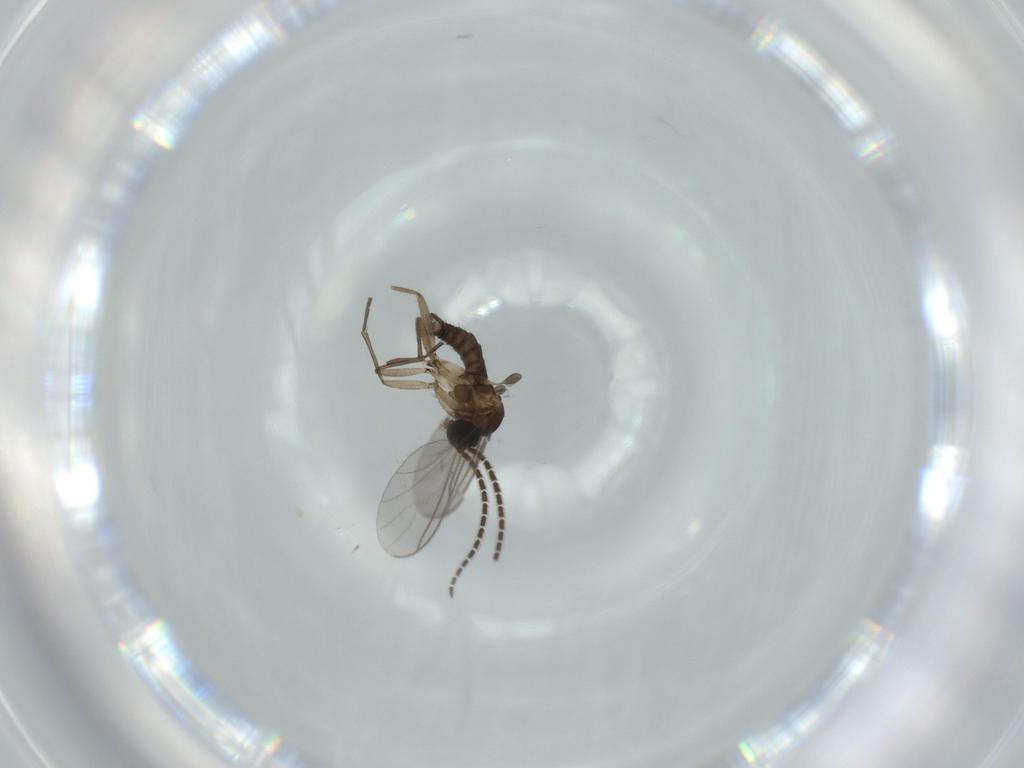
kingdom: Animalia
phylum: Arthropoda
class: Insecta
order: Diptera
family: Sciaridae
